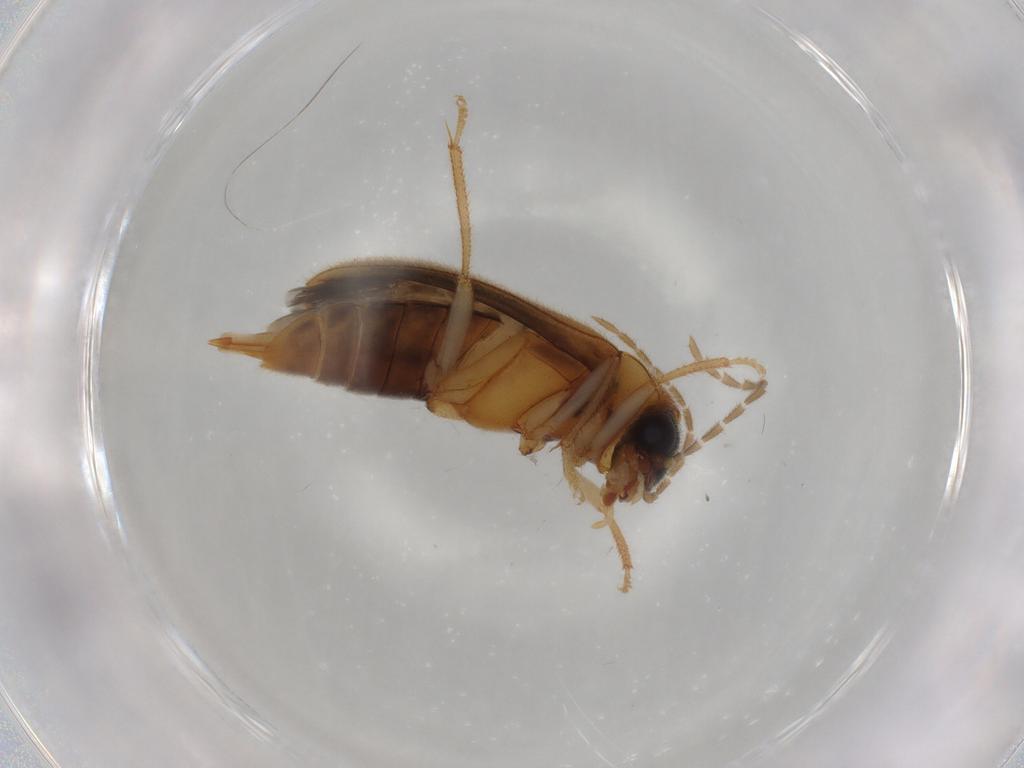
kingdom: Animalia
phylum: Arthropoda
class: Insecta
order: Coleoptera
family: Ptilodactylidae
